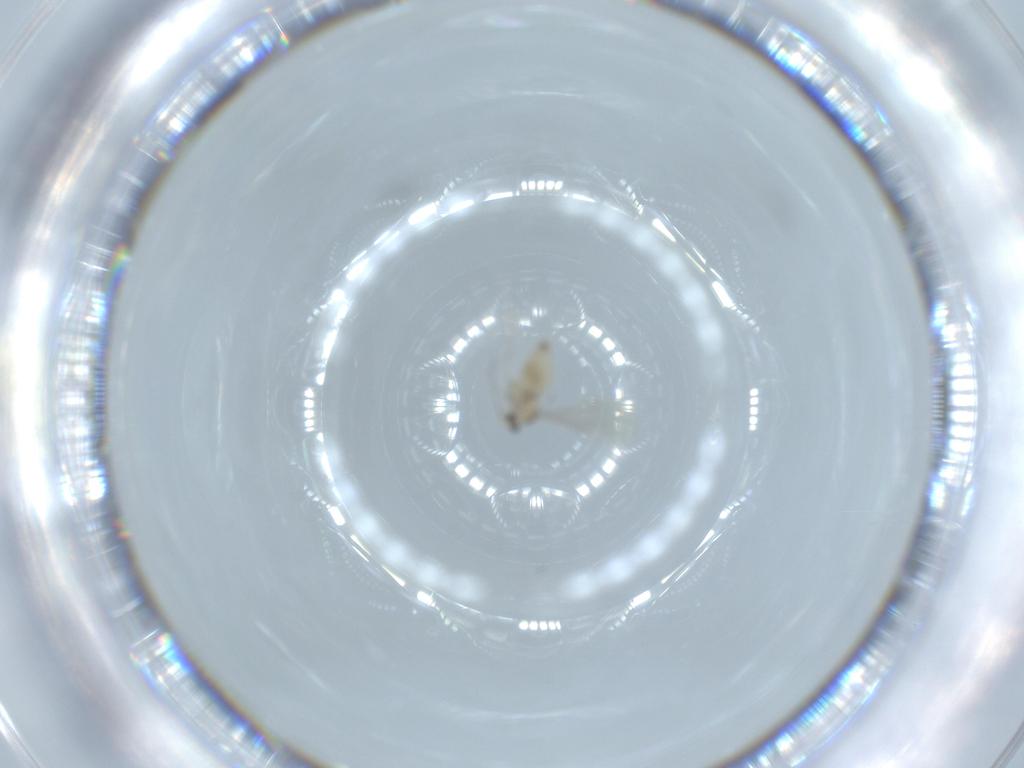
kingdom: Animalia
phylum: Arthropoda
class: Insecta
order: Diptera
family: Cecidomyiidae
